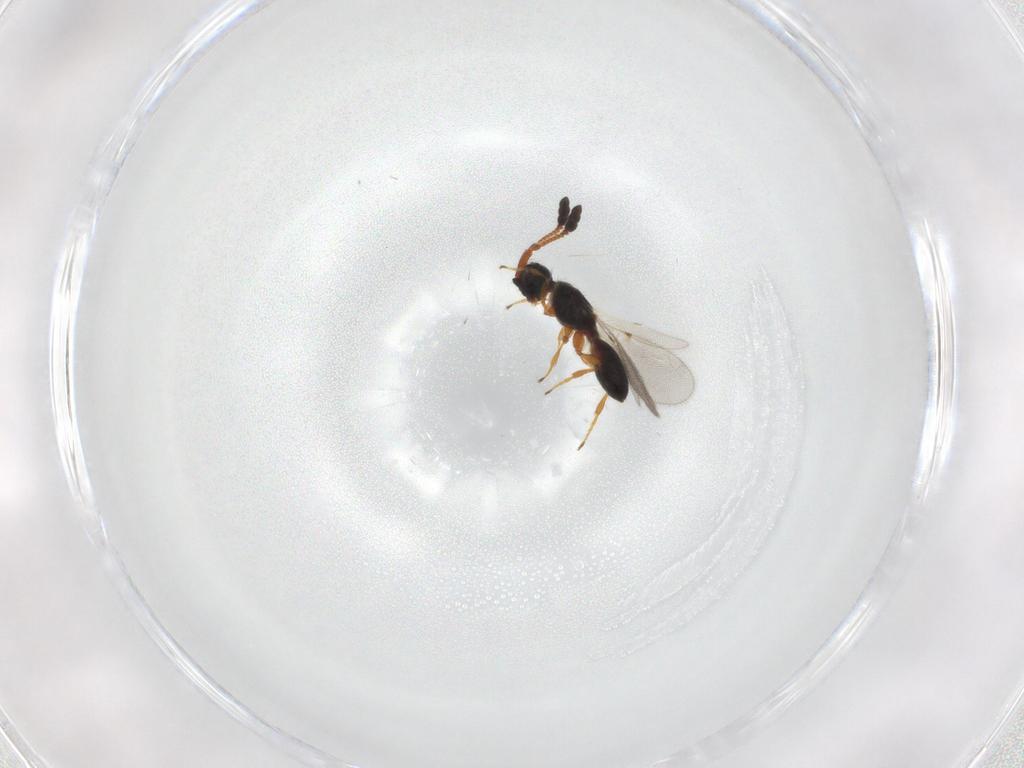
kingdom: Animalia
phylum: Arthropoda
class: Insecta
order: Hymenoptera
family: Diapriidae
